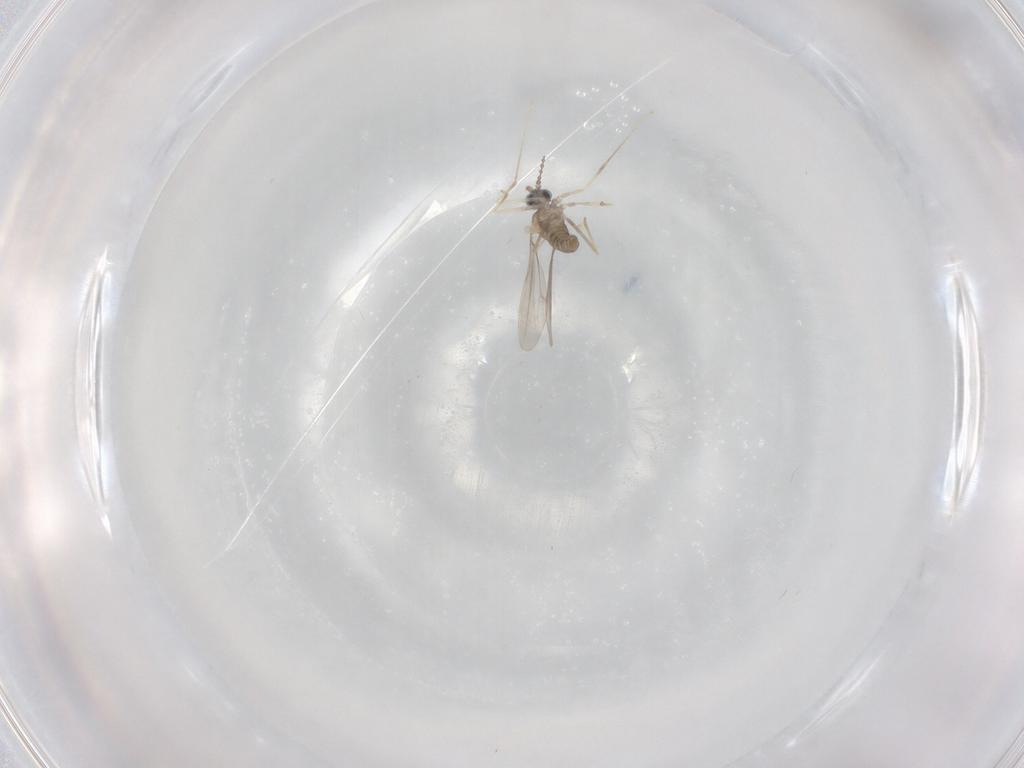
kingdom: Animalia
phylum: Arthropoda
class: Insecta
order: Diptera
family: Cecidomyiidae
